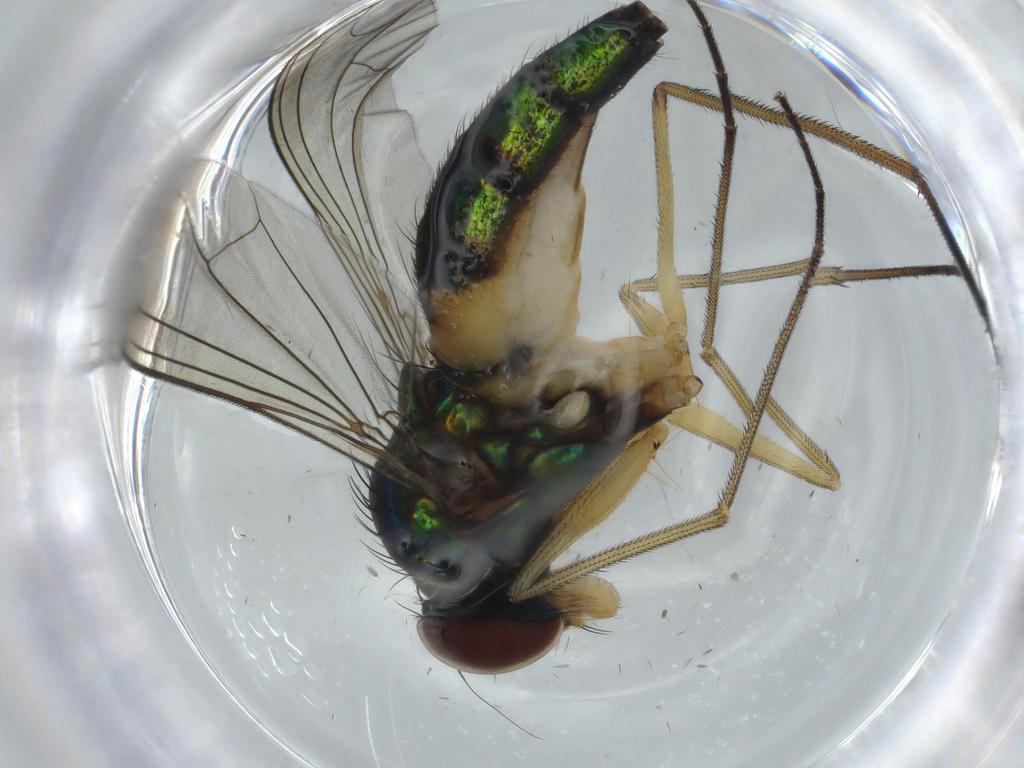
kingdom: Animalia
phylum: Arthropoda
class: Insecta
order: Diptera
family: Dolichopodidae
